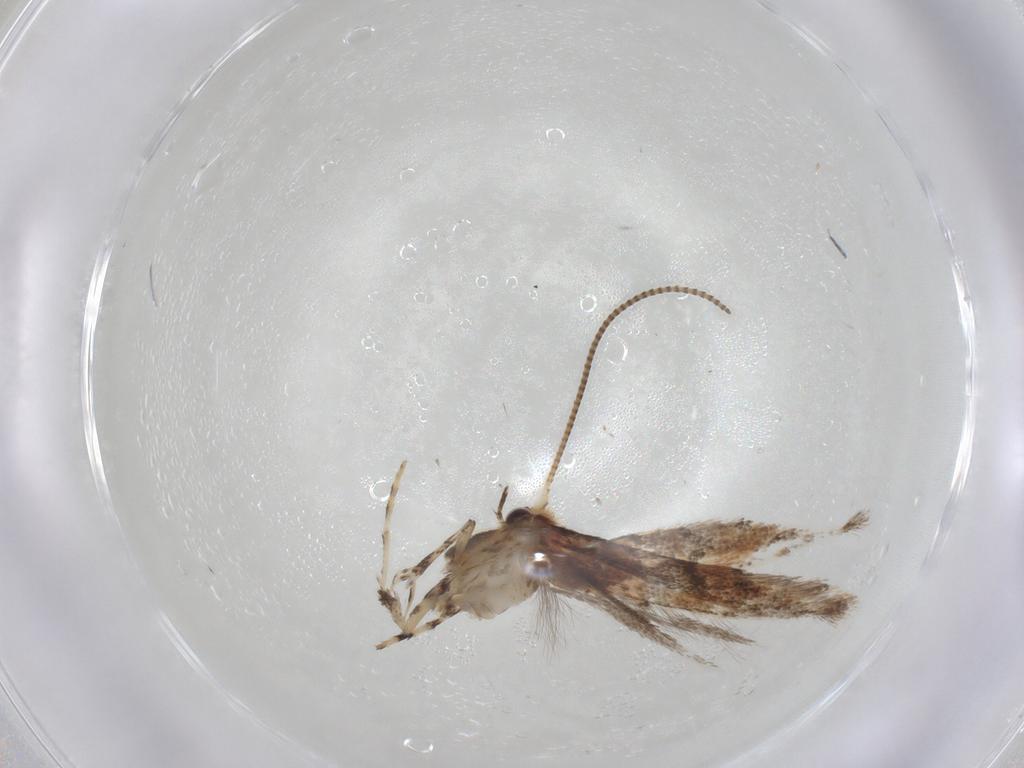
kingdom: Animalia
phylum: Arthropoda
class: Insecta
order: Lepidoptera
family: Gracillariidae
